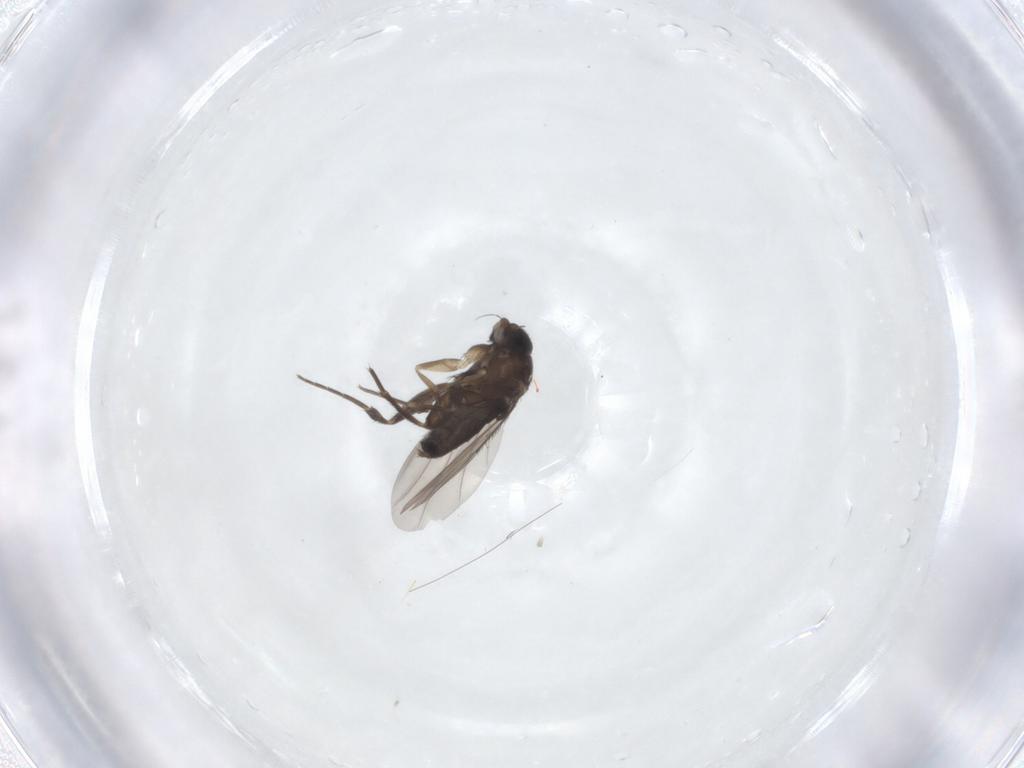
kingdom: Animalia
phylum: Arthropoda
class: Insecta
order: Diptera
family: Phoridae
